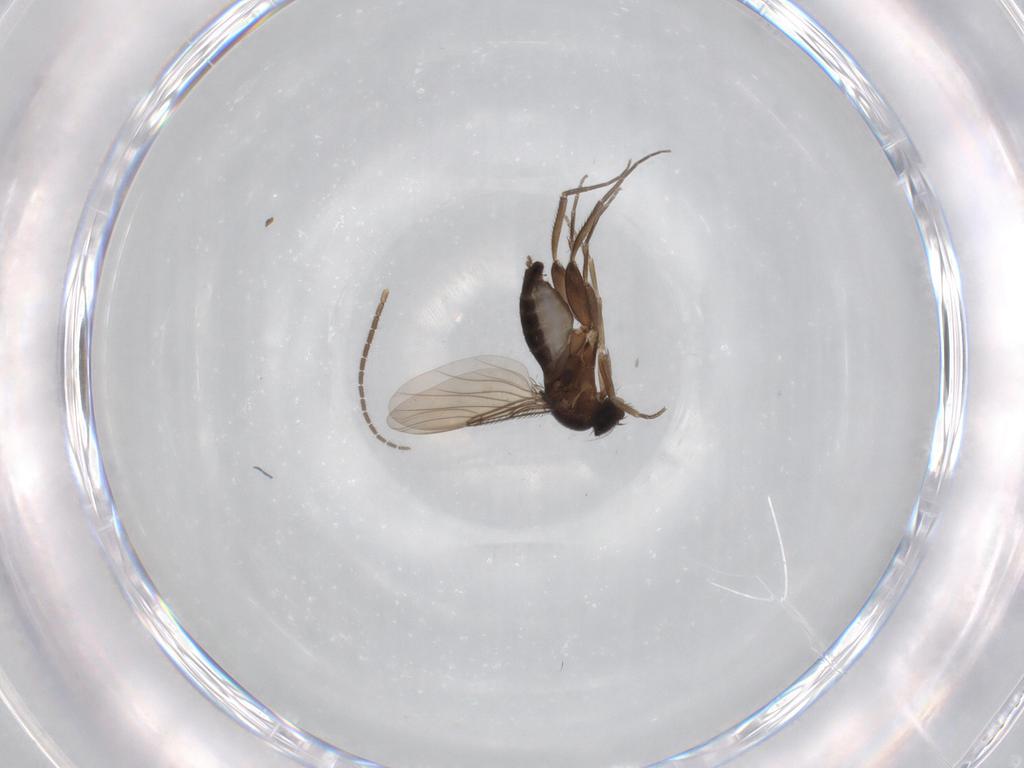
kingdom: Animalia
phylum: Arthropoda
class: Insecta
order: Diptera
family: Phoridae
